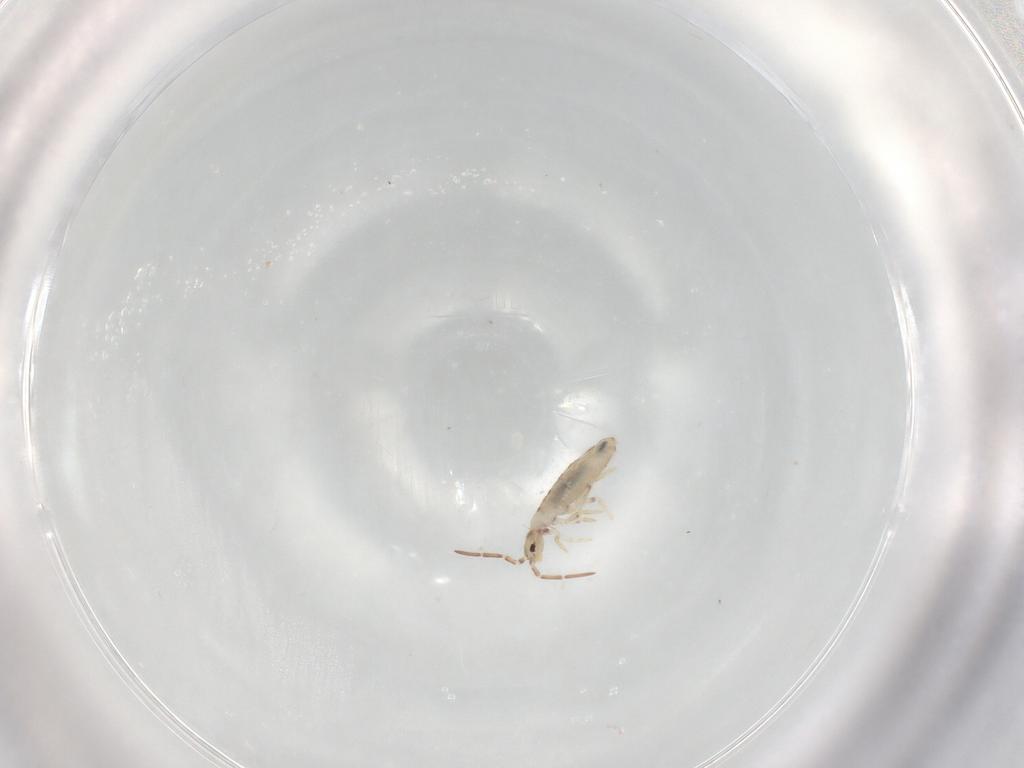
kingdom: Animalia
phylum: Arthropoda
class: Collembola
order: Entomobryomorpha
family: Entomobryidae
